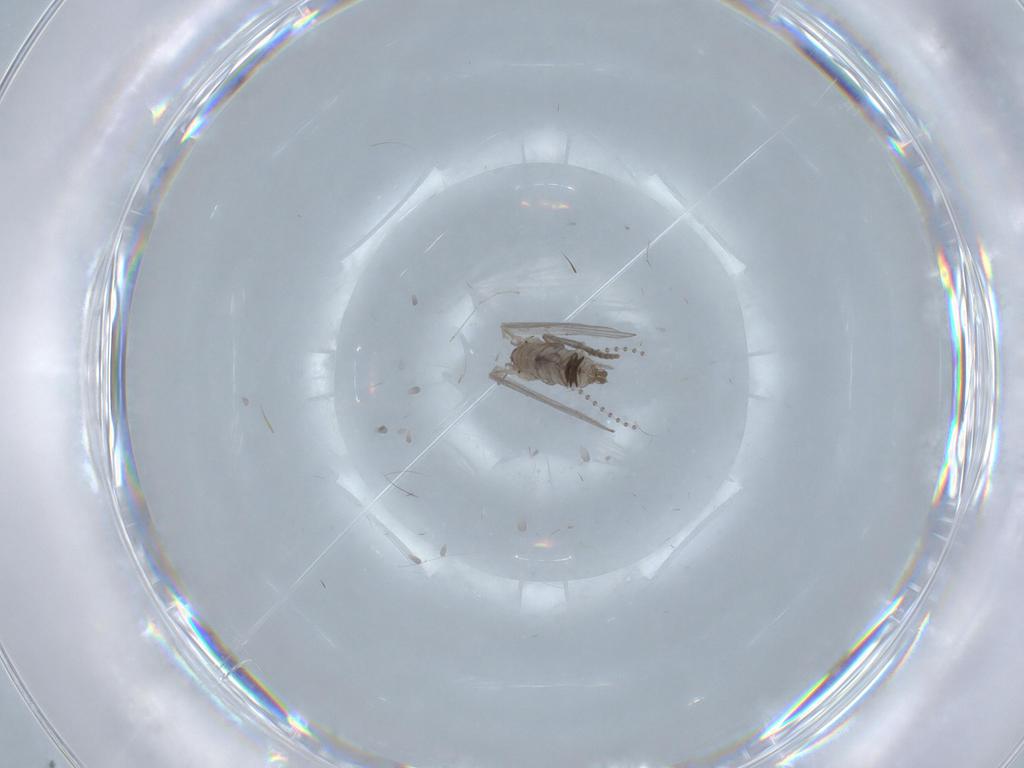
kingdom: Animalia
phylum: Arthropoda
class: Insecta
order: Diptera
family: Psychodidae
